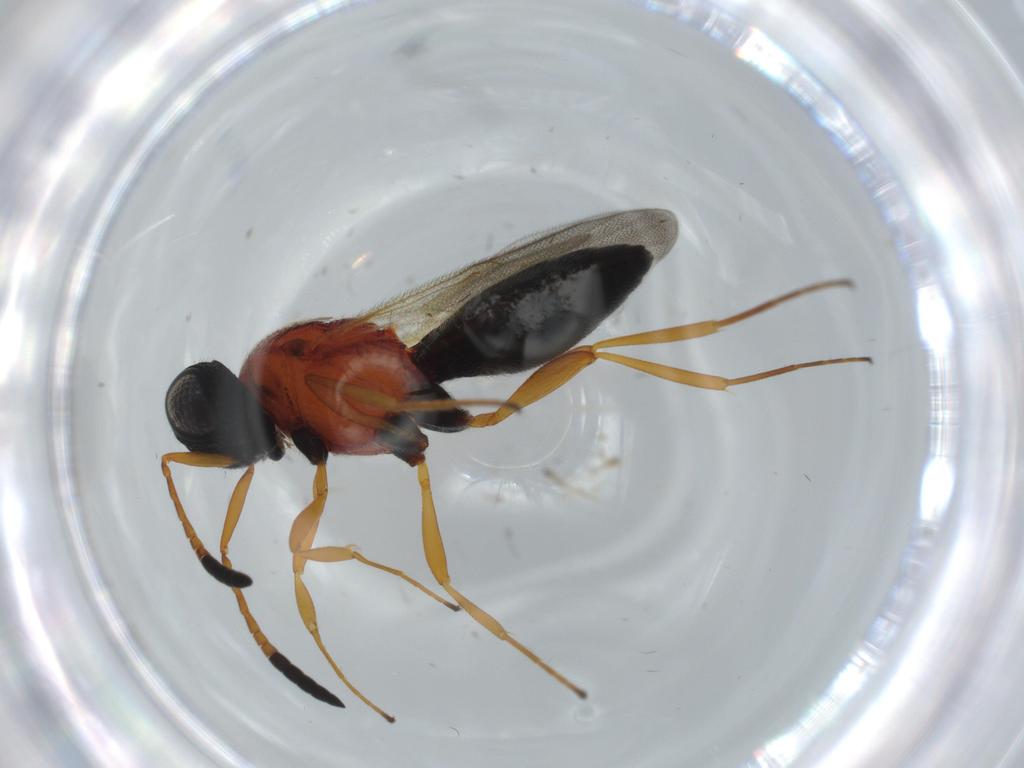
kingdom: Animalia
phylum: Arthropoda
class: Insecta
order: Hymenoptera
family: Scelionidae
